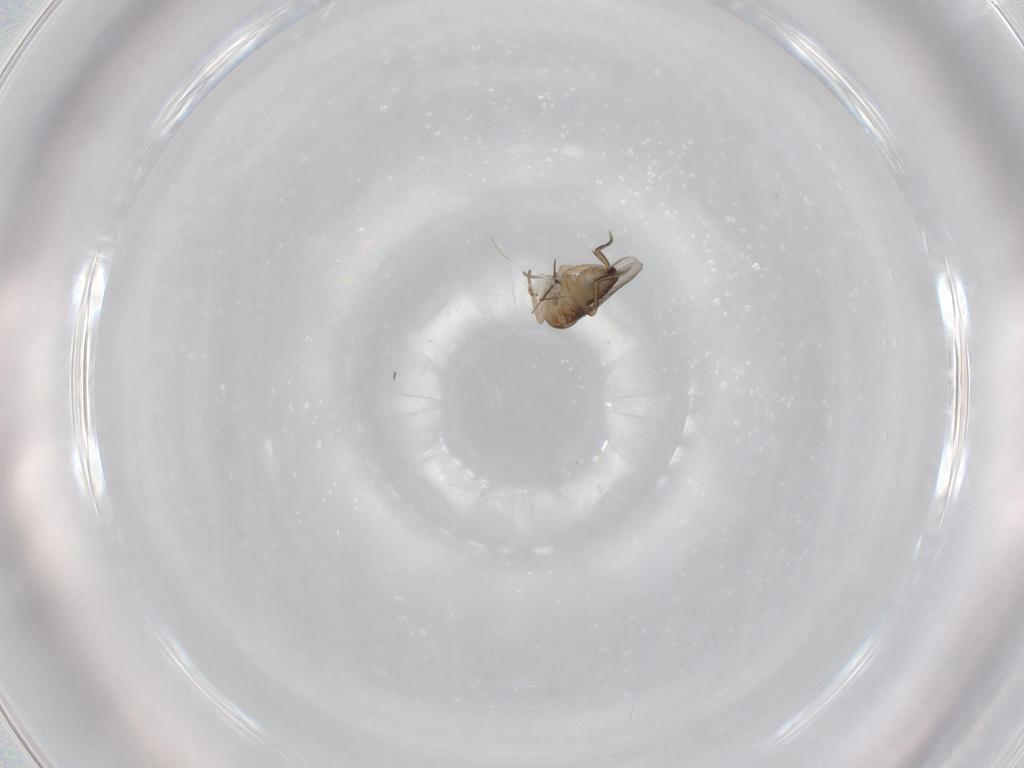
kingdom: Animalia
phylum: Arthropoda
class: Insecta
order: Diptera
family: Phoridae
